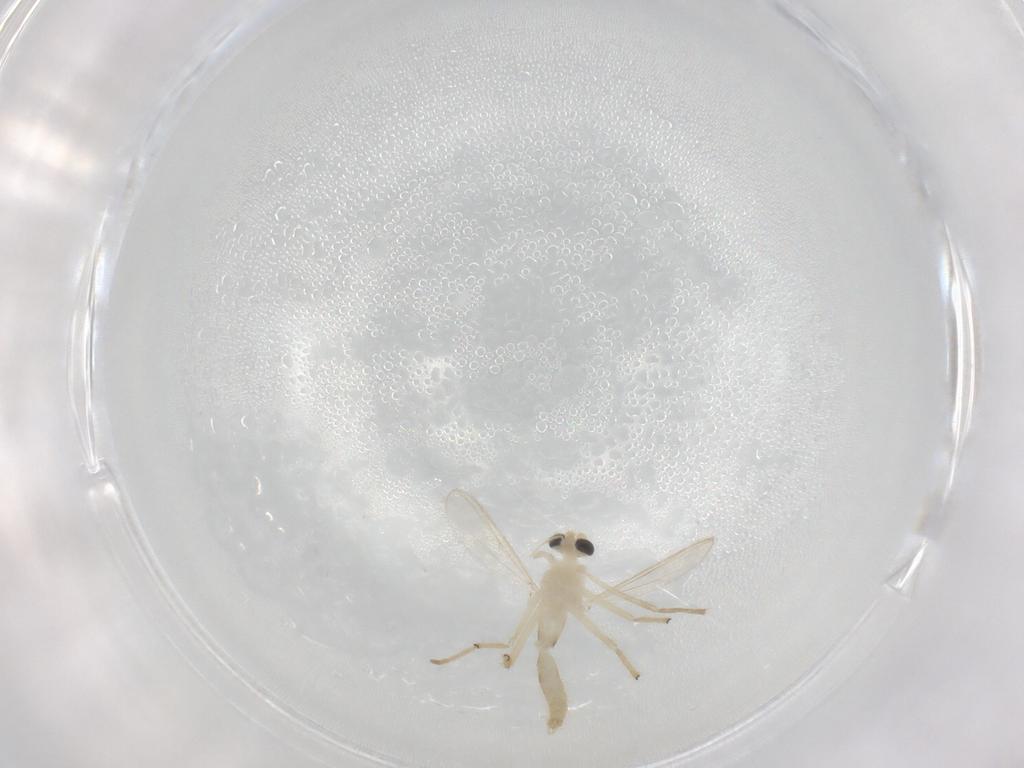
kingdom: Animalia
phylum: Arthropoda
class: Insecta
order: Diptera
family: Chironomidae
